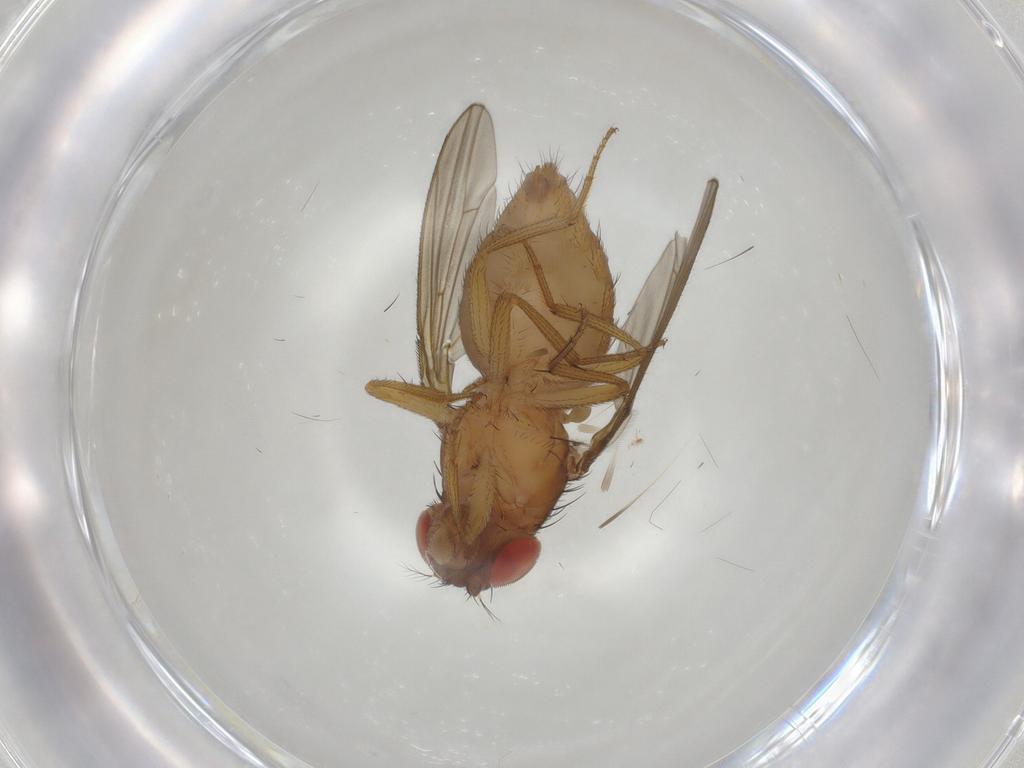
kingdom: Animalia
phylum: Arthropoda
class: Insecta
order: Diptera
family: Drosophilidae
